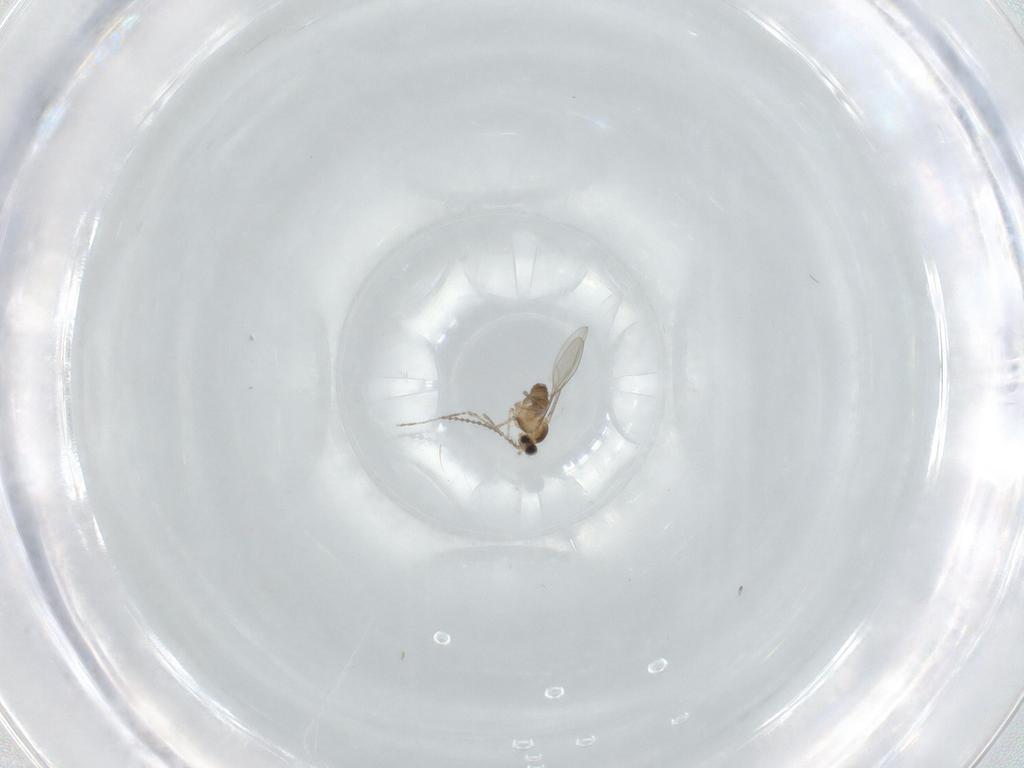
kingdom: Animalia
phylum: Arthropoda
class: Insecta
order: Diptera
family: Cecidomyiidae
